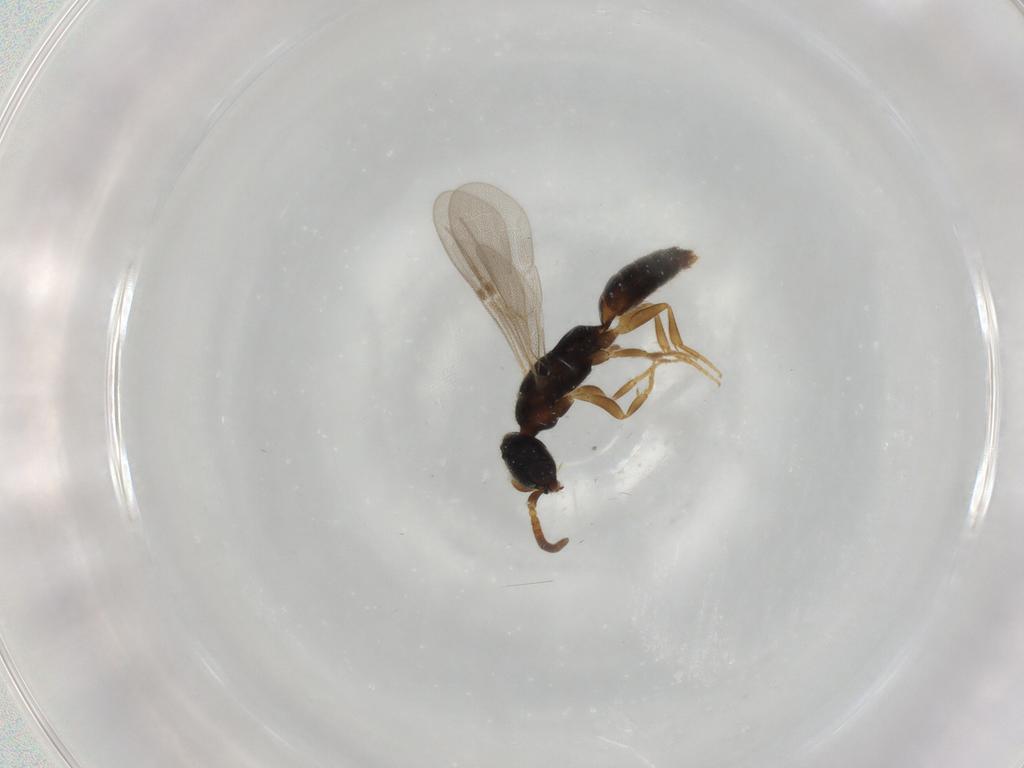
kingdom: Animalia
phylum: Arthropoda
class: Insecta
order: Hymenoptera
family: Bethylidae
